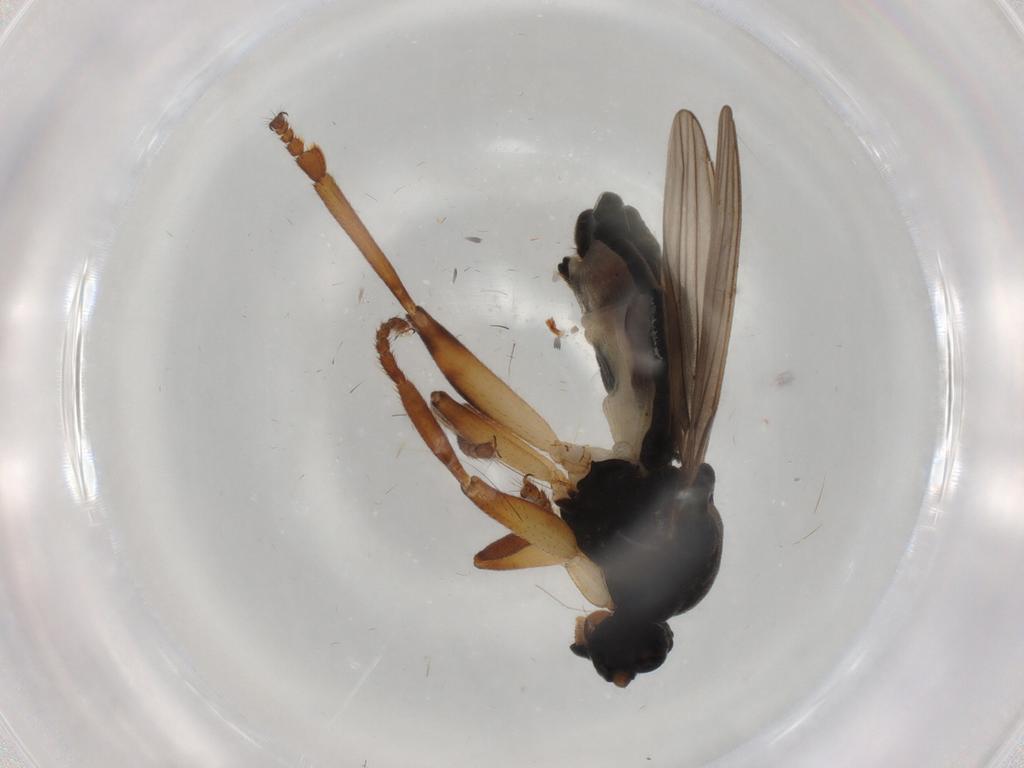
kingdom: Animalia
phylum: Arthropoda
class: Insecta
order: Diptera
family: Sphaeroceridae
